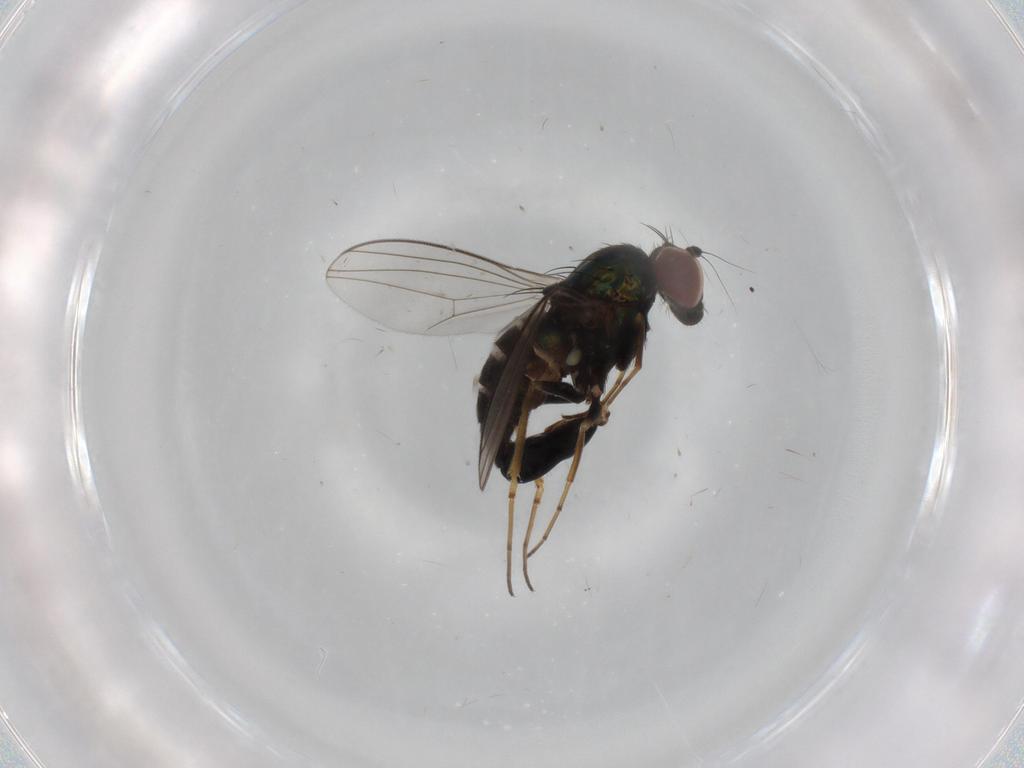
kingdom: Animalia
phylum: Arthropoda
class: Insecta
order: Diptera
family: Dolichopodidae
